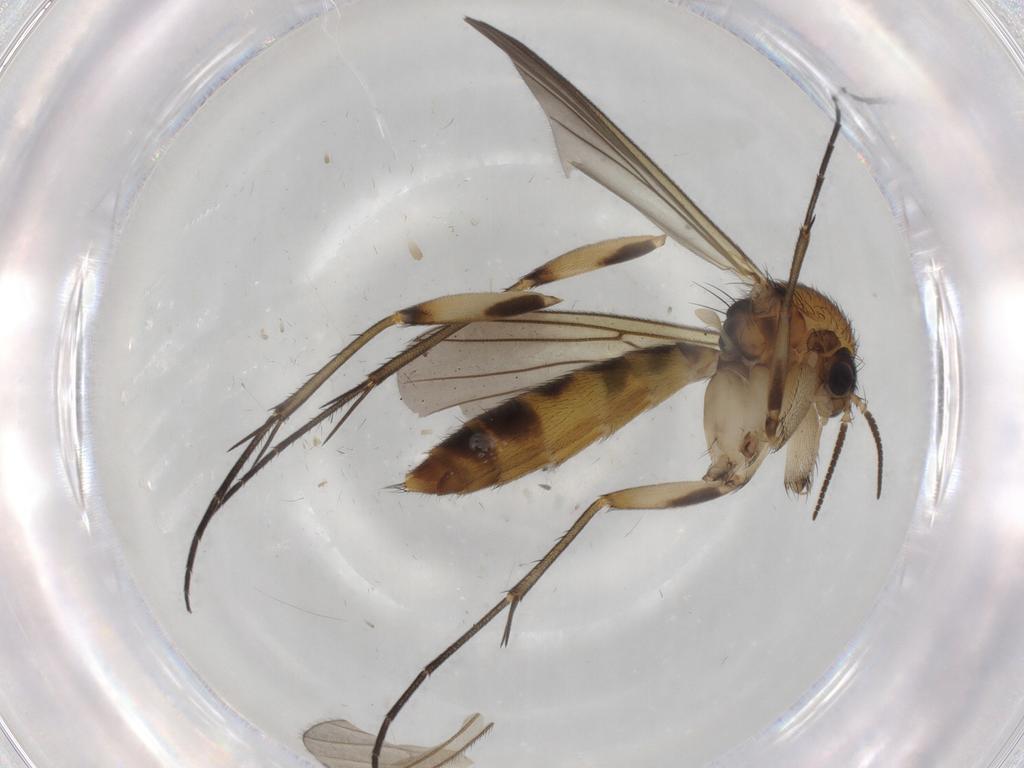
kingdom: Animalia
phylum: Arthropoda
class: Insecta
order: Diptera
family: Mycetophilidae
